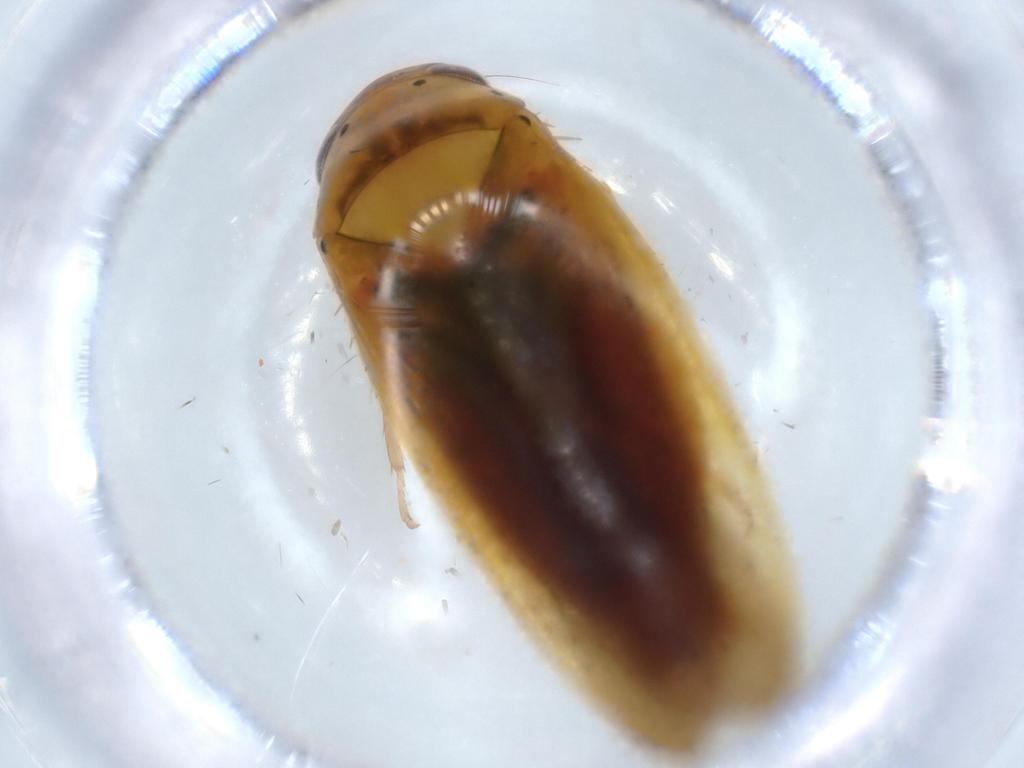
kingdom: Animalia
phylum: Arthropoda
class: Insecta
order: Hemiptera
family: Cicadellidae
